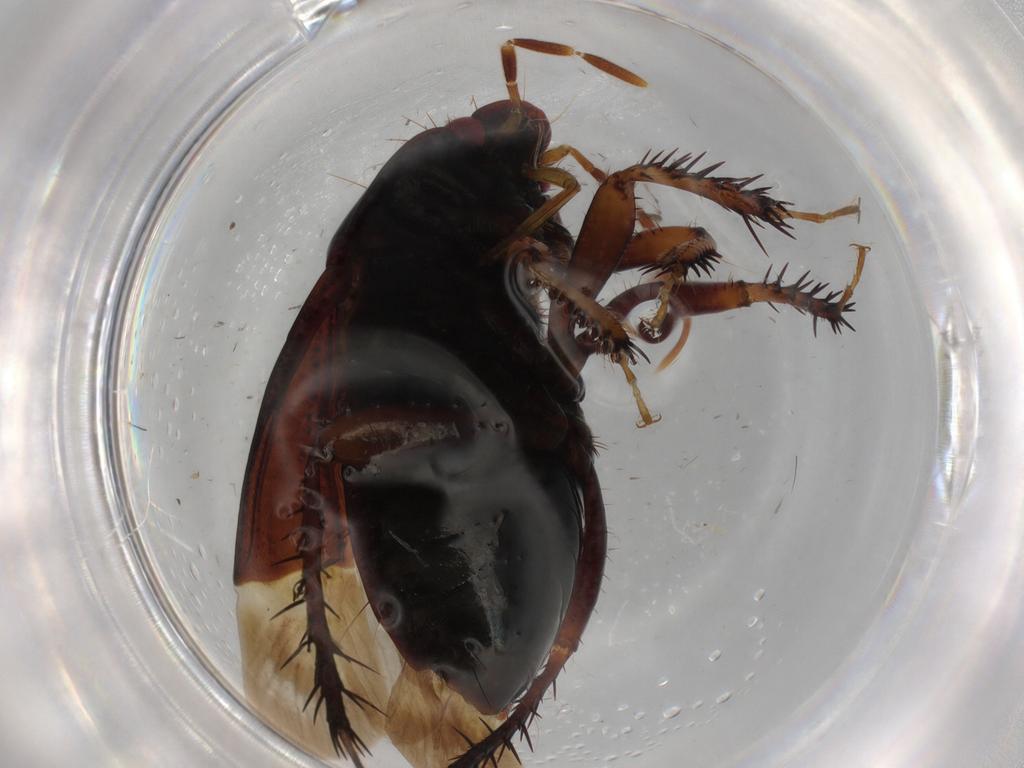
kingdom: Animalia
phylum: Arthropoda
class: Insecta
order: Hemiptera
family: Cydnidae
